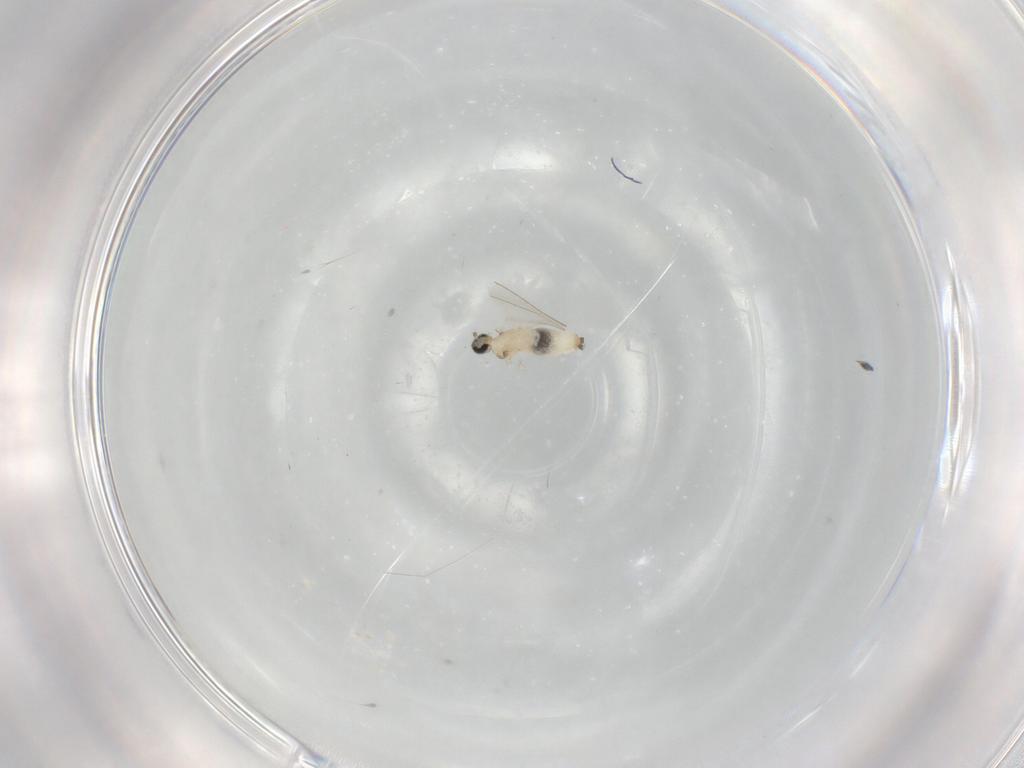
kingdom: Animalia
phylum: Arthropoda
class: Insecta
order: Diptera
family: Cecidomyiidae
